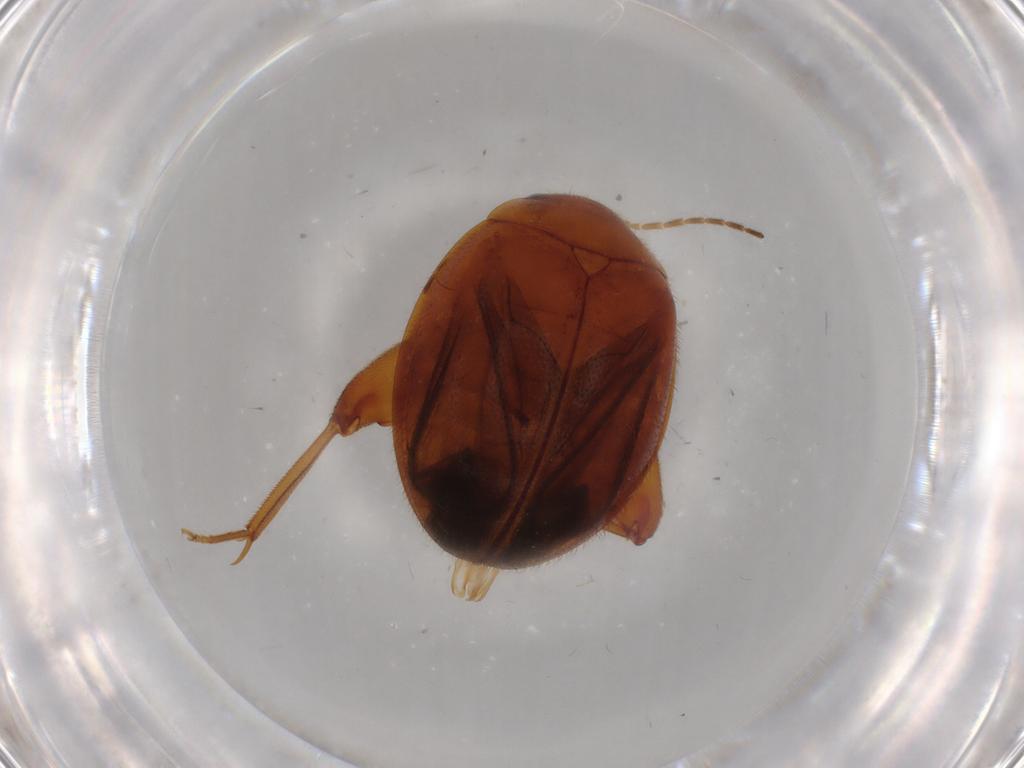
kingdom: Animalia
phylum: Arthropoda
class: Insecta
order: Coleoptera
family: Scirtidae
